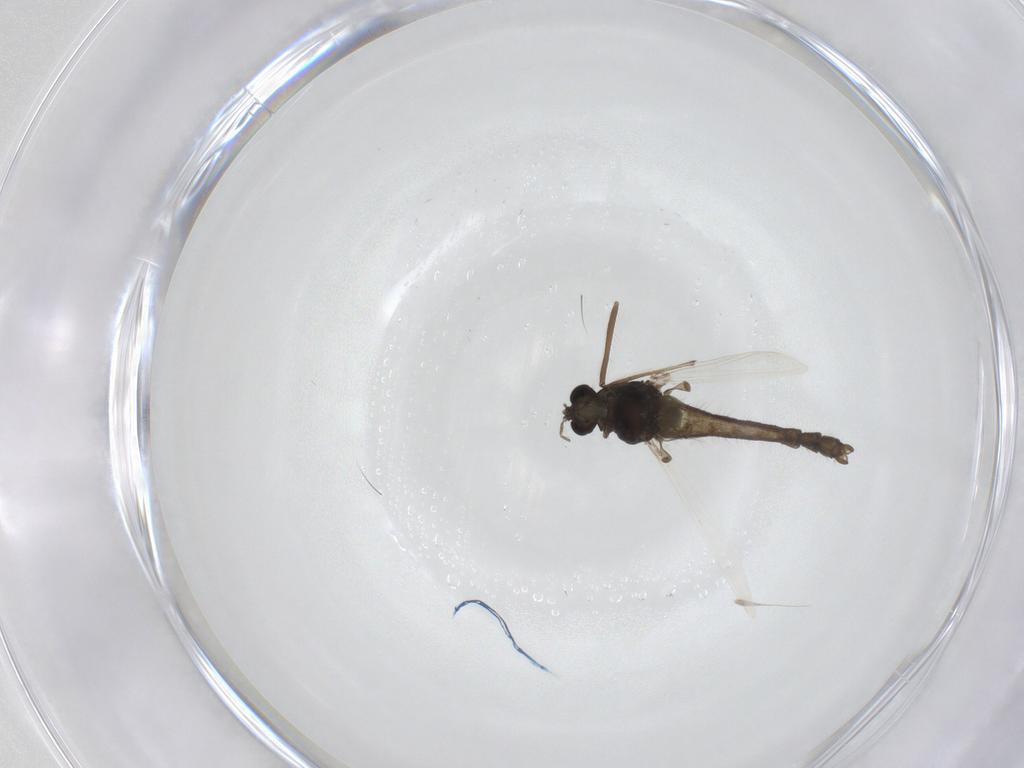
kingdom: Animalia
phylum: Arthropoda
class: Insecta
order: Diptera
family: Chironomidae
